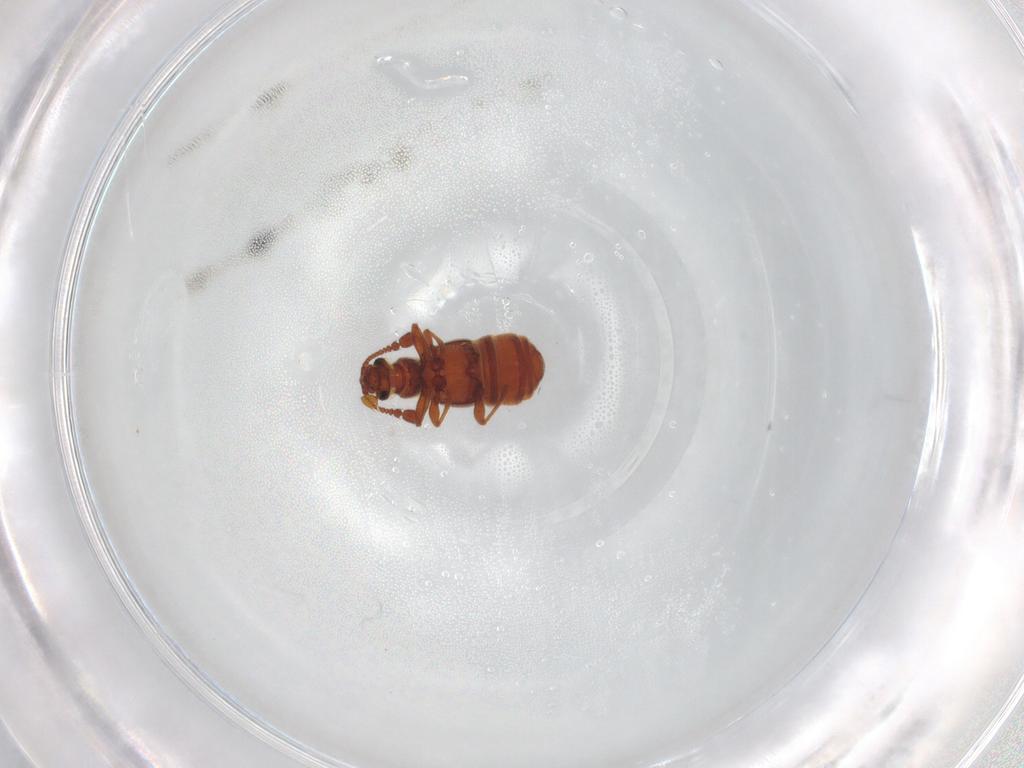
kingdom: Animalia
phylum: Arthropoda
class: Insecta
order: Coleoptera
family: Staphylinidae
